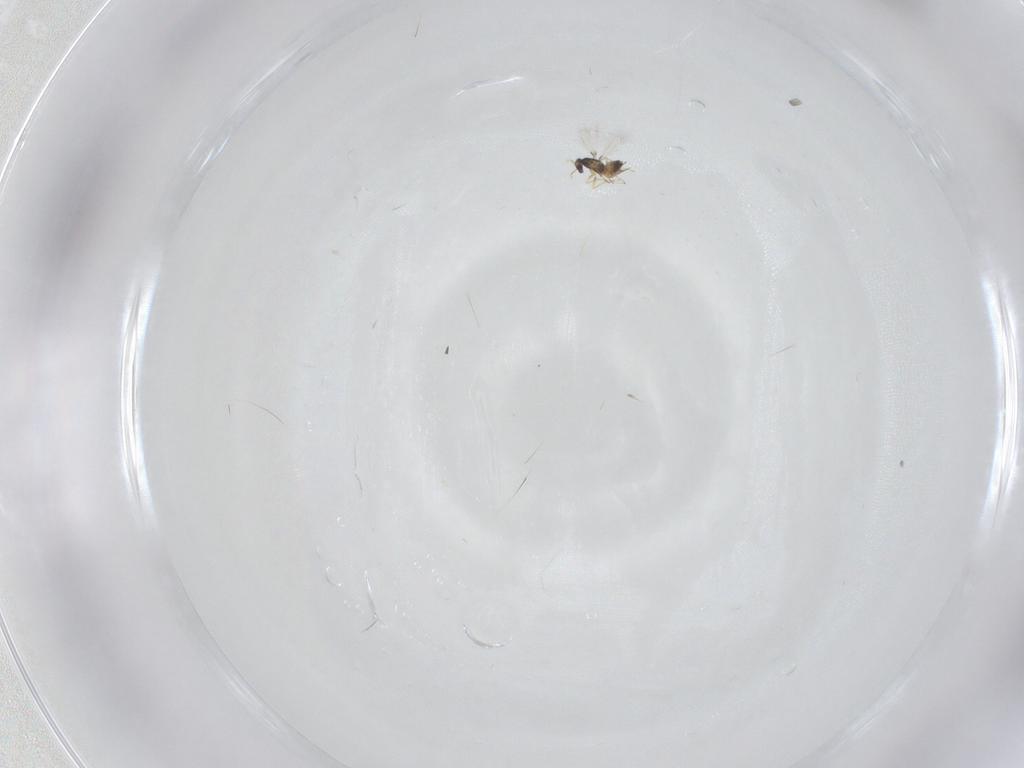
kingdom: Animalia
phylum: Arthropoda
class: Insecta
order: Hymenoptera
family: Mymaridae
